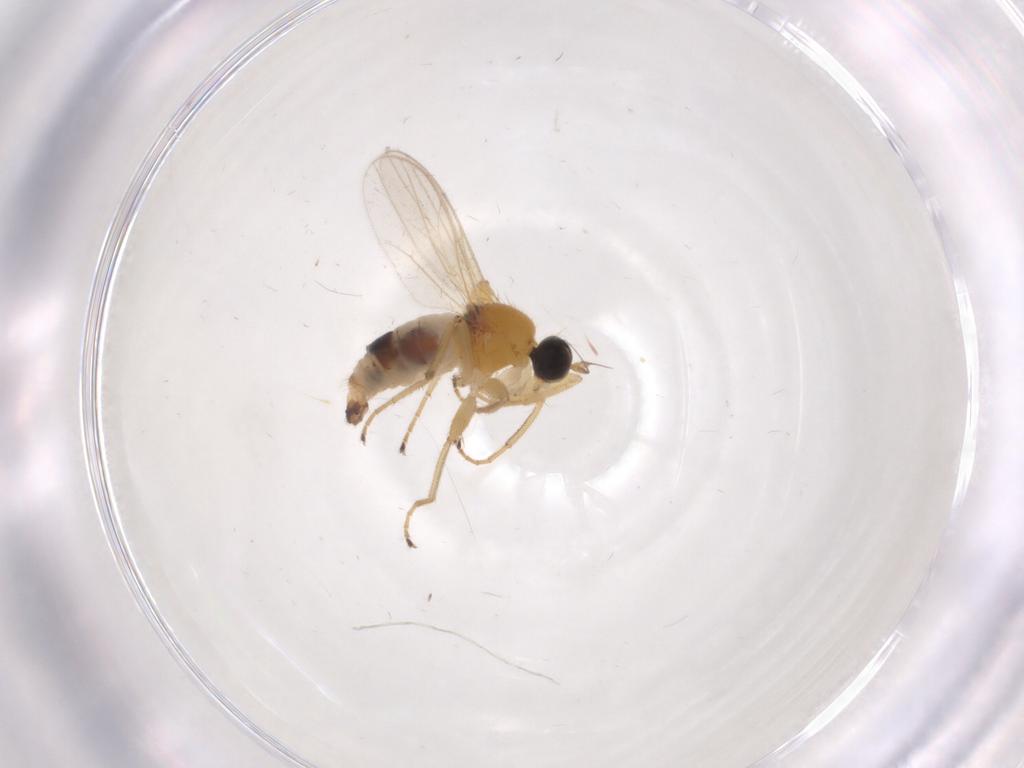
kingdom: Animalia
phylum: Arthropoda
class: Insecta
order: Diptera
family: Hybotidae
